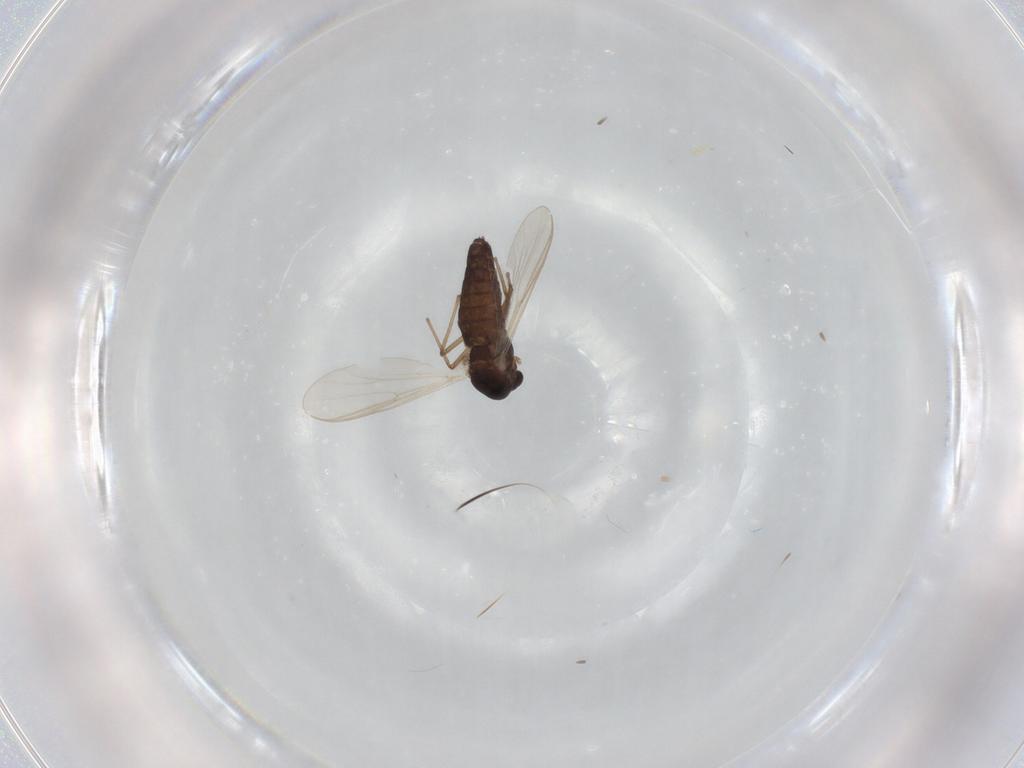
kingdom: Animalia
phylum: Arthropoda
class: Insecta
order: Diptera
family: Chironomidae
